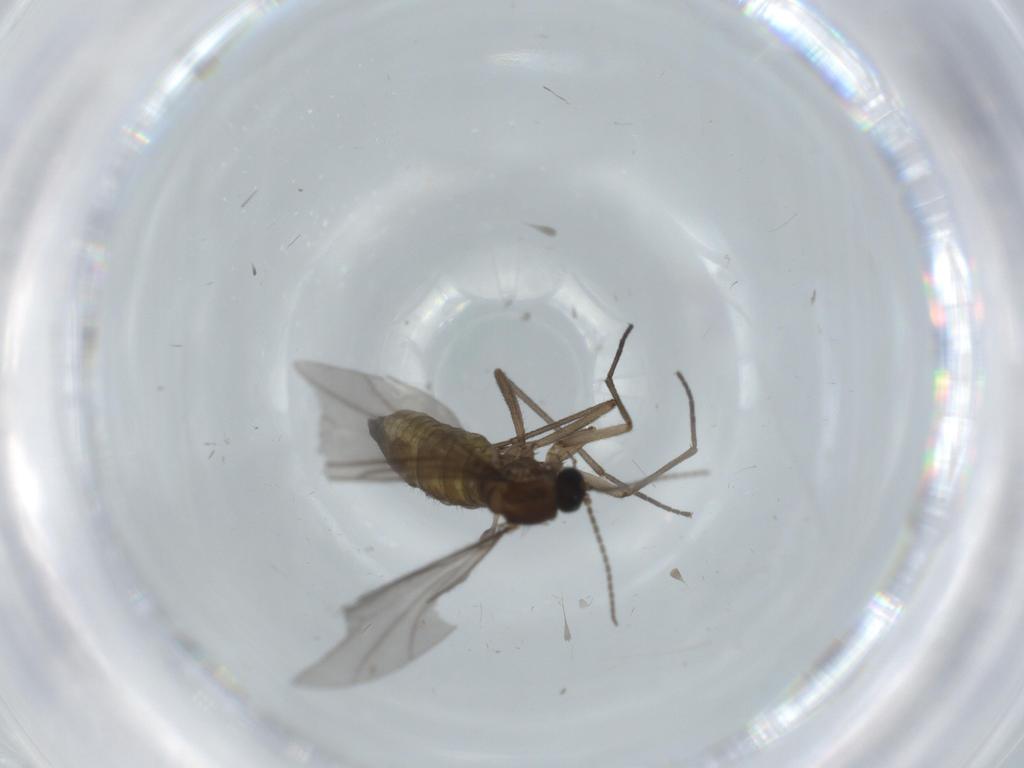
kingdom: Animalia
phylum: Arthropoda
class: Insecta
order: Diptera
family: Sciaridae
